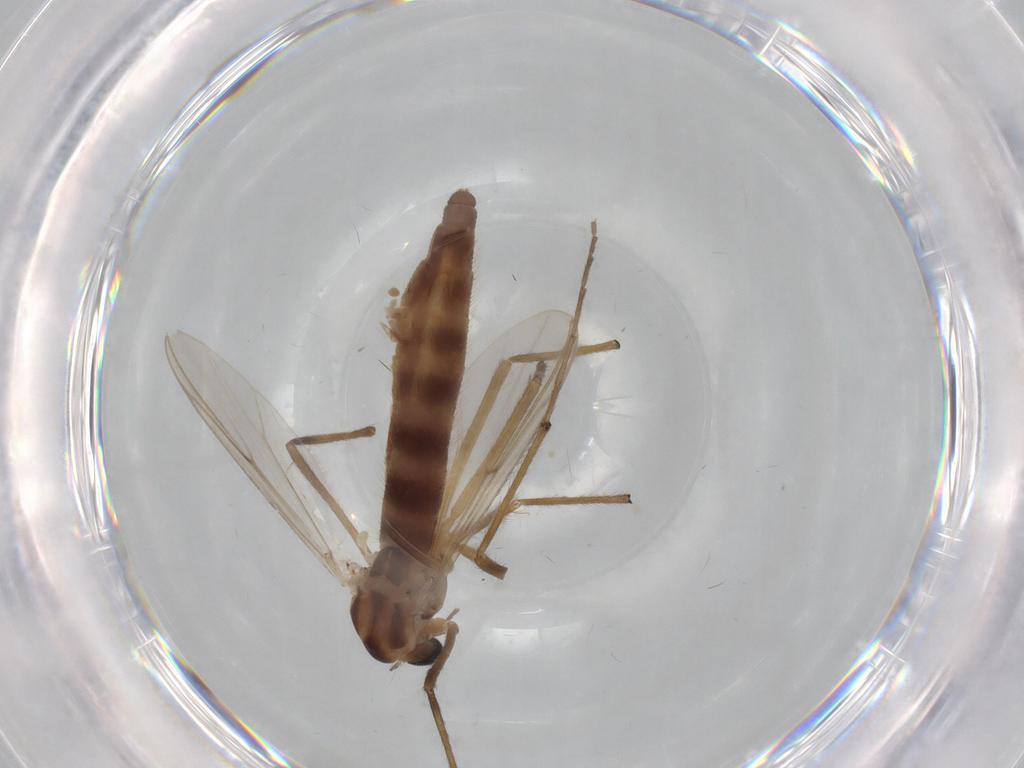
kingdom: Animalia
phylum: Arthropoda
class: Insecta
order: Diptera
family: Chironomidae
